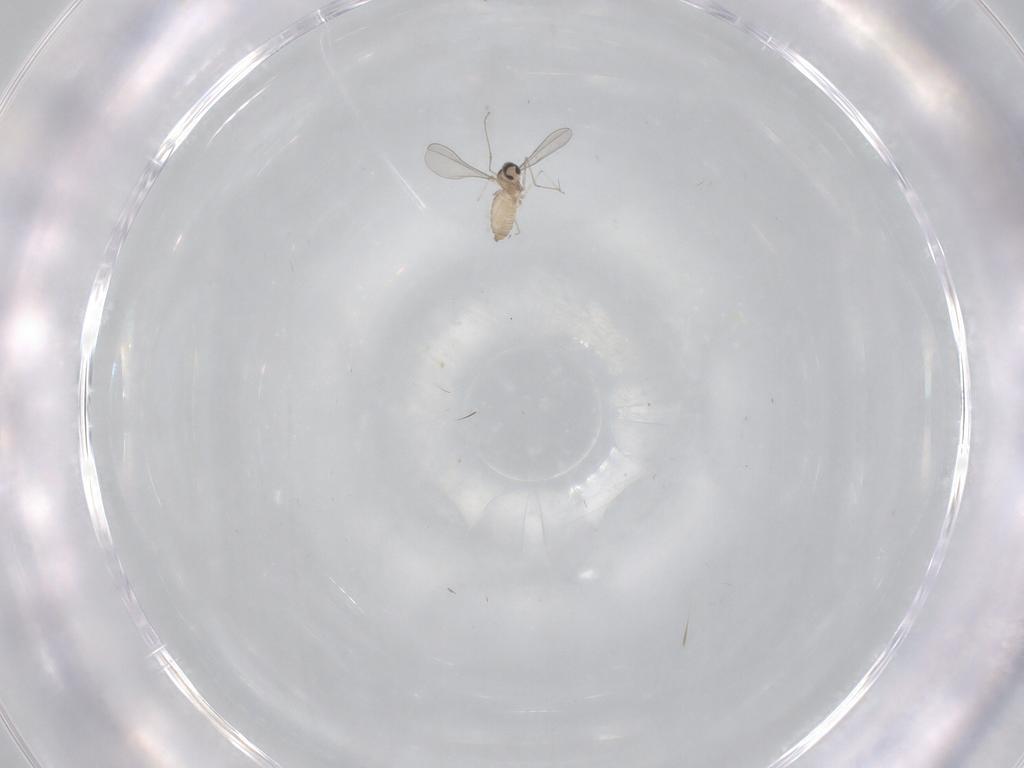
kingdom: Animalia
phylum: Arthropoda
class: Insecta
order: Diptera
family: Cecidomyiidae
